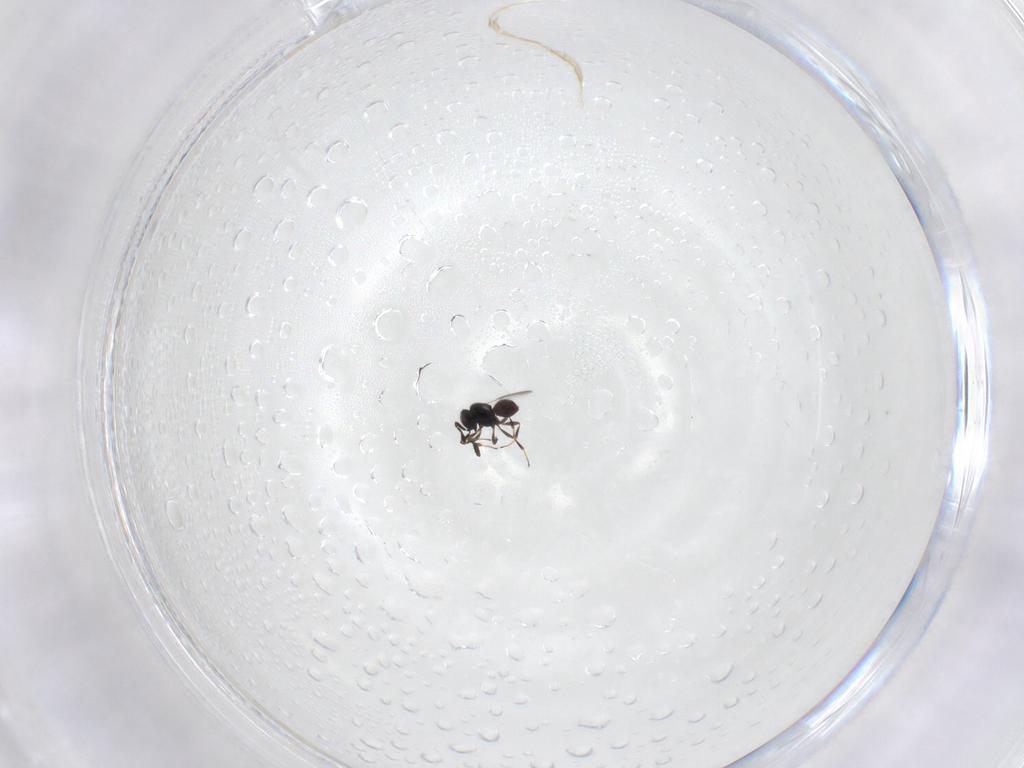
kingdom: Animalia
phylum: Arthropoda
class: Insecta
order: Hymenoptera
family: Scelionidae
